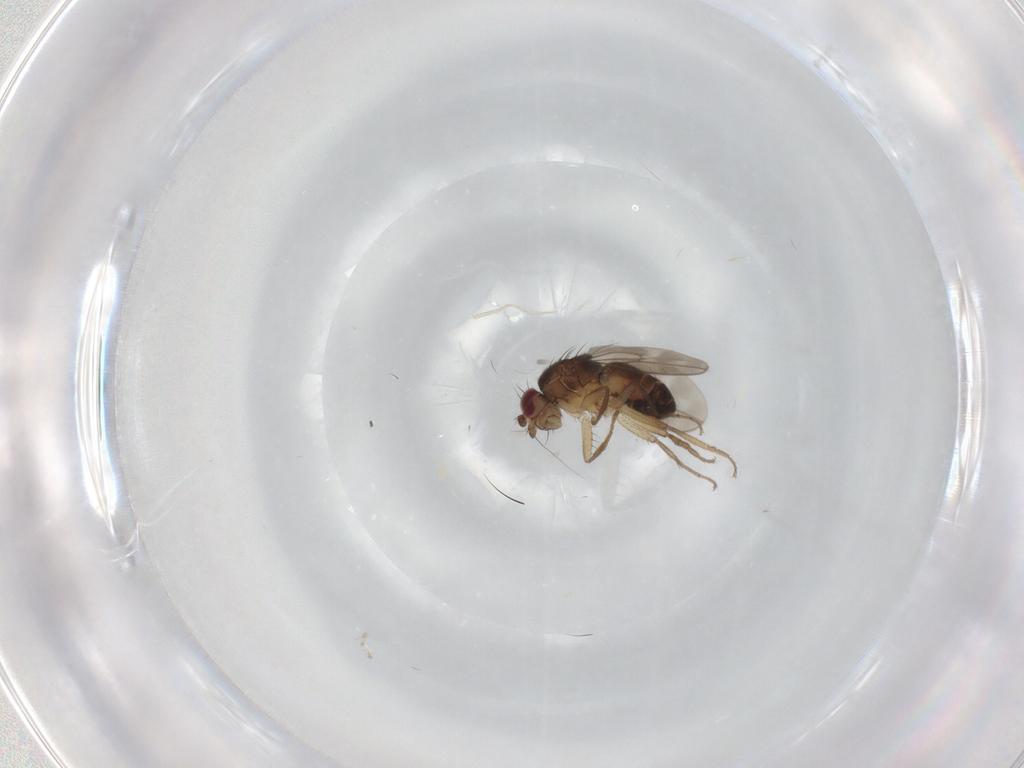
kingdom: Animalia
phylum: Arthropoda
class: Insecta
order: Diptera
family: Sphaeroceridae
